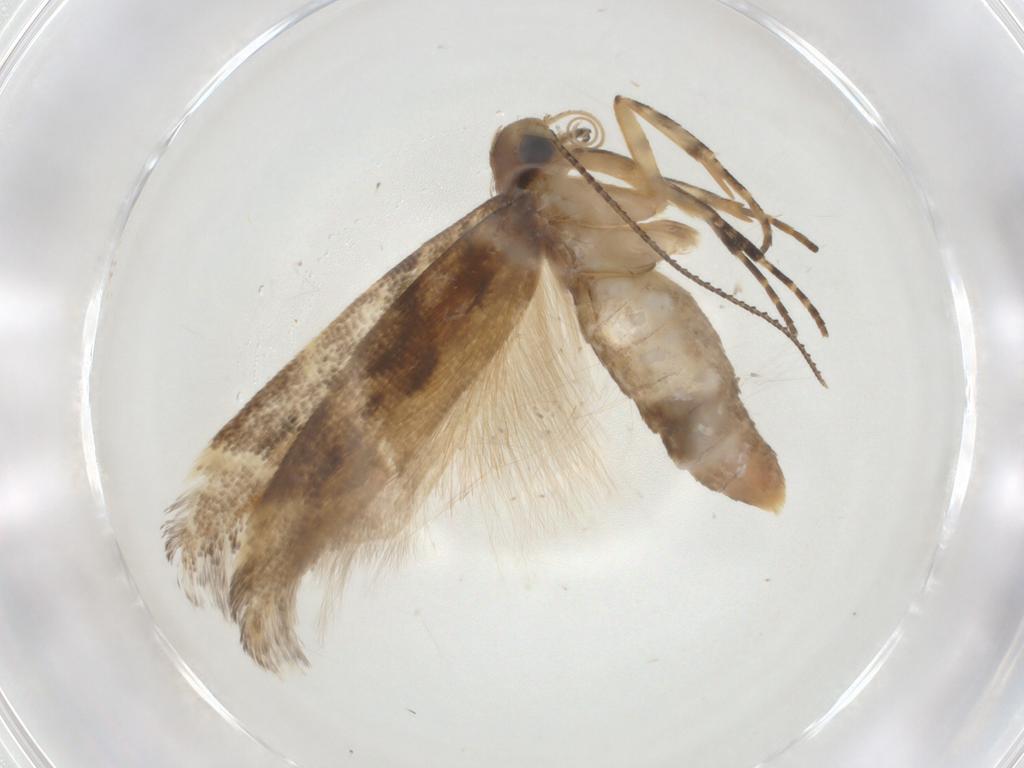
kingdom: Animalia
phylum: Arthropoda
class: Insecta
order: Lepidoptera
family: Gelechiidae
